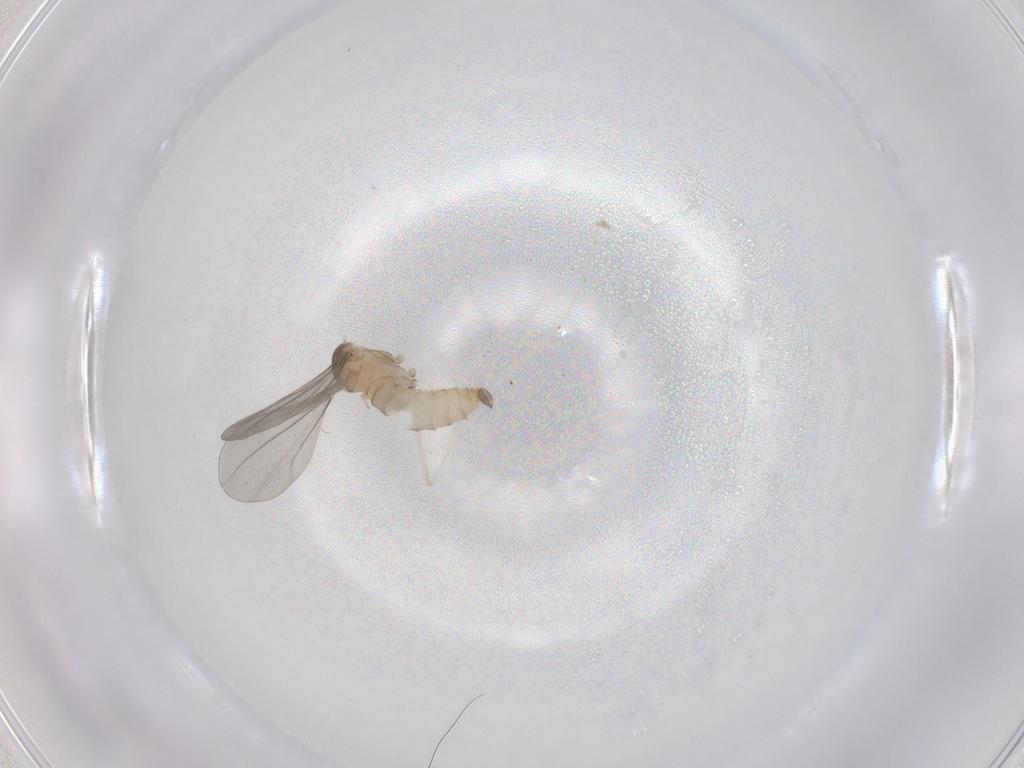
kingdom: Animalia
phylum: Arthropoda
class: Insecta
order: Diptera
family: Cecidomyiidae
